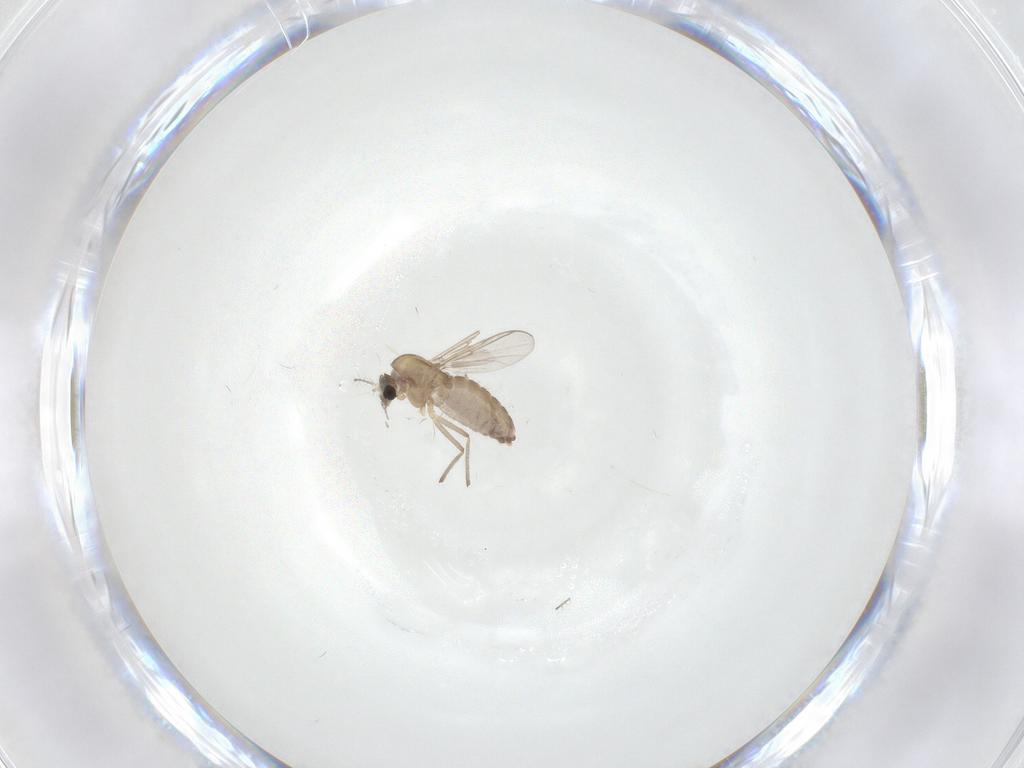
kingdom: Animalia
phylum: Arthropoda
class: Insecta
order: Diptera
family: Chironomidae
